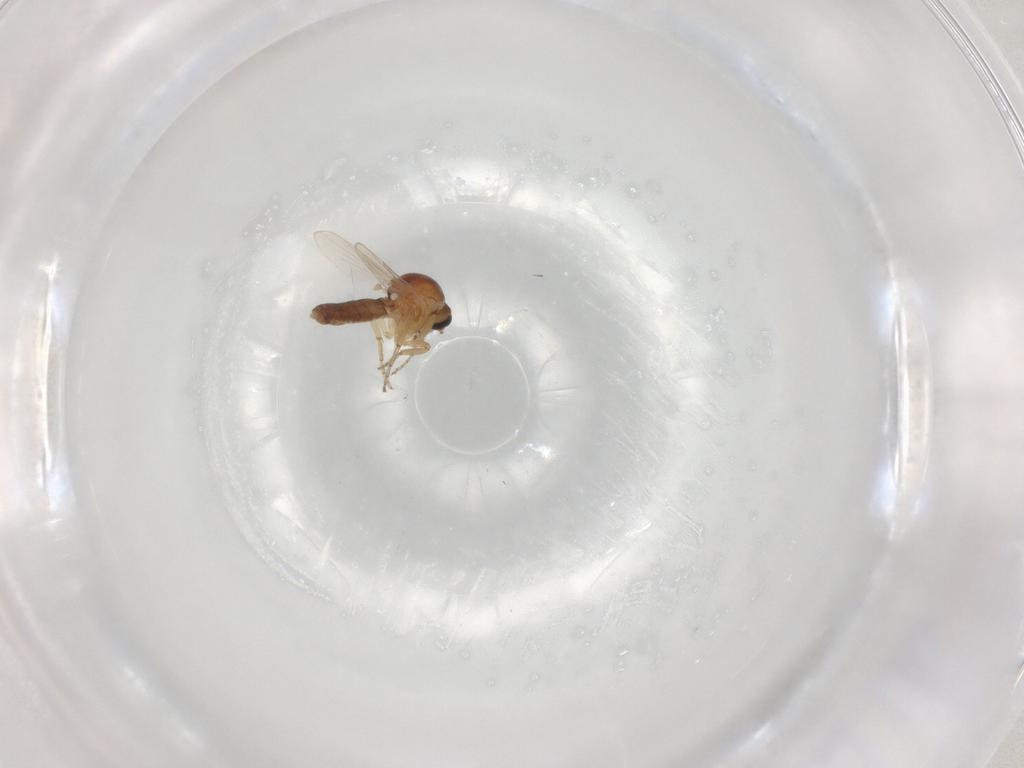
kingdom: Animalia
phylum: Arthropoda
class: Insecta
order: Diptera
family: Ceratopogonidae
